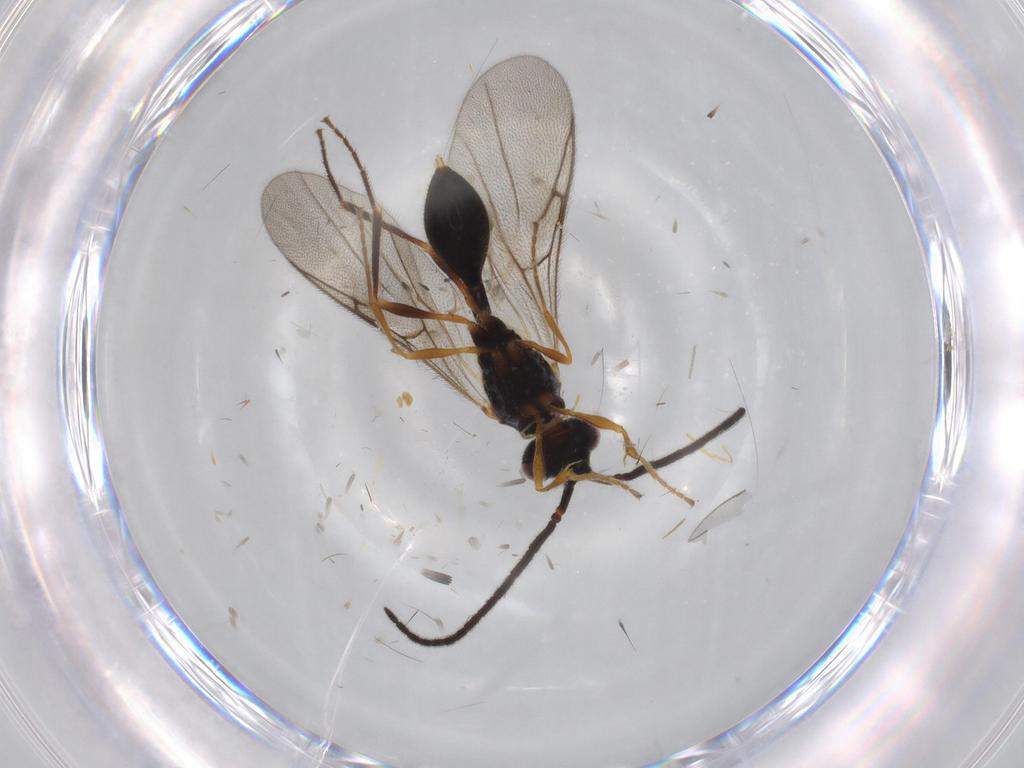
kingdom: Animalia
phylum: Arthropoda
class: Insecta
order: Hymenoptera
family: Diapriidae
